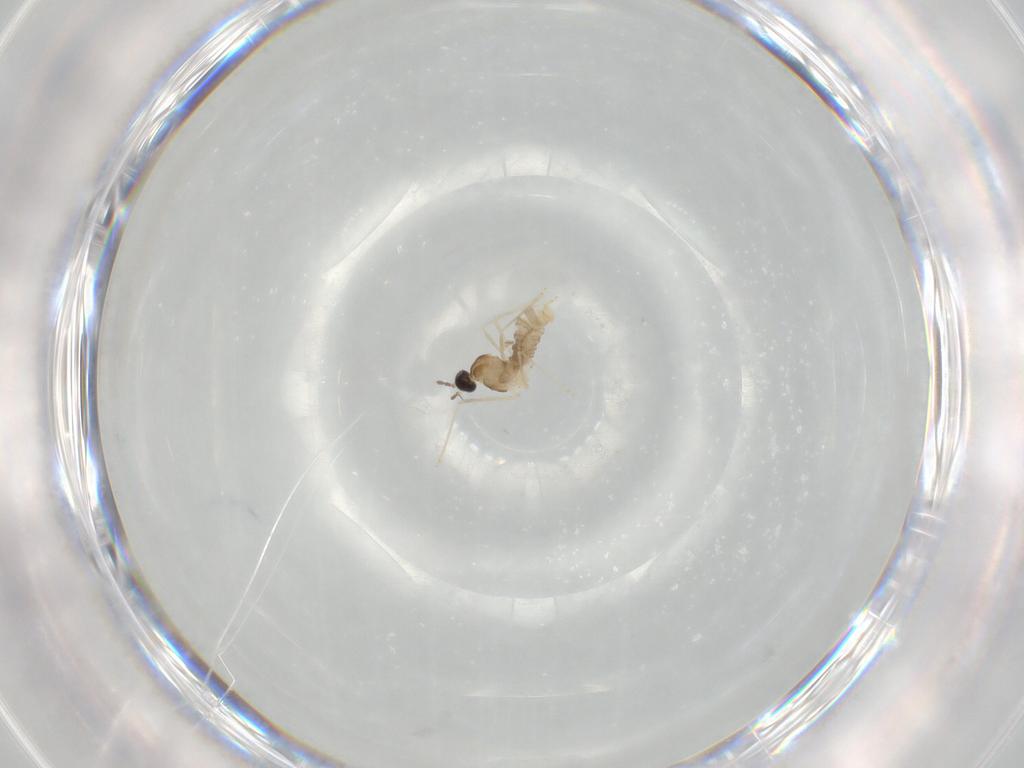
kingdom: Animalia
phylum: Arthropoda
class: Insecta
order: Diptera
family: Cecidomyiidae
